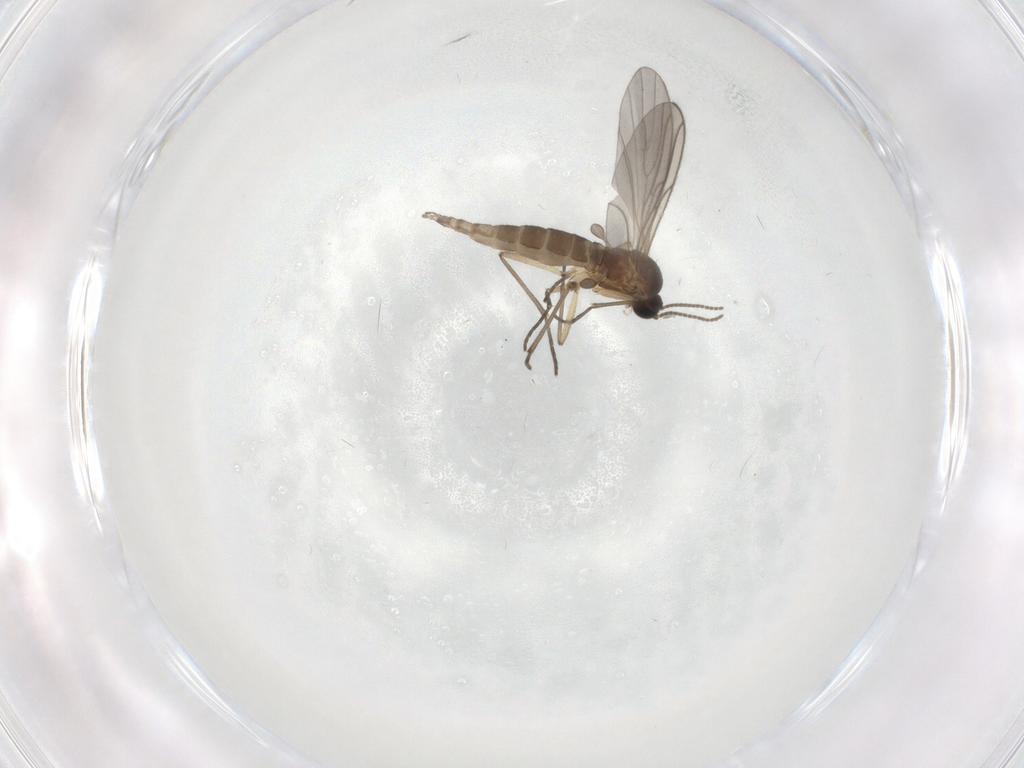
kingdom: Animalia
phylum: Arthropoda
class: Insecta
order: Diptera
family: Sciaridae
